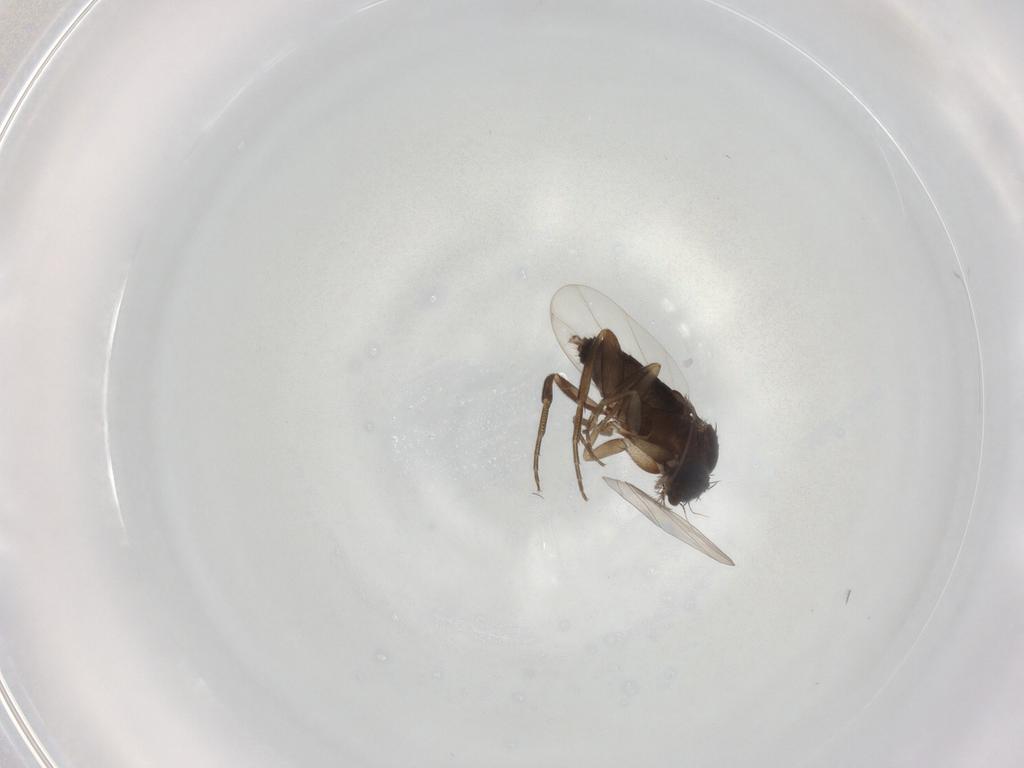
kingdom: Animalia
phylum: Arthropoda
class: Insecta
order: Diptera
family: Phoridae
